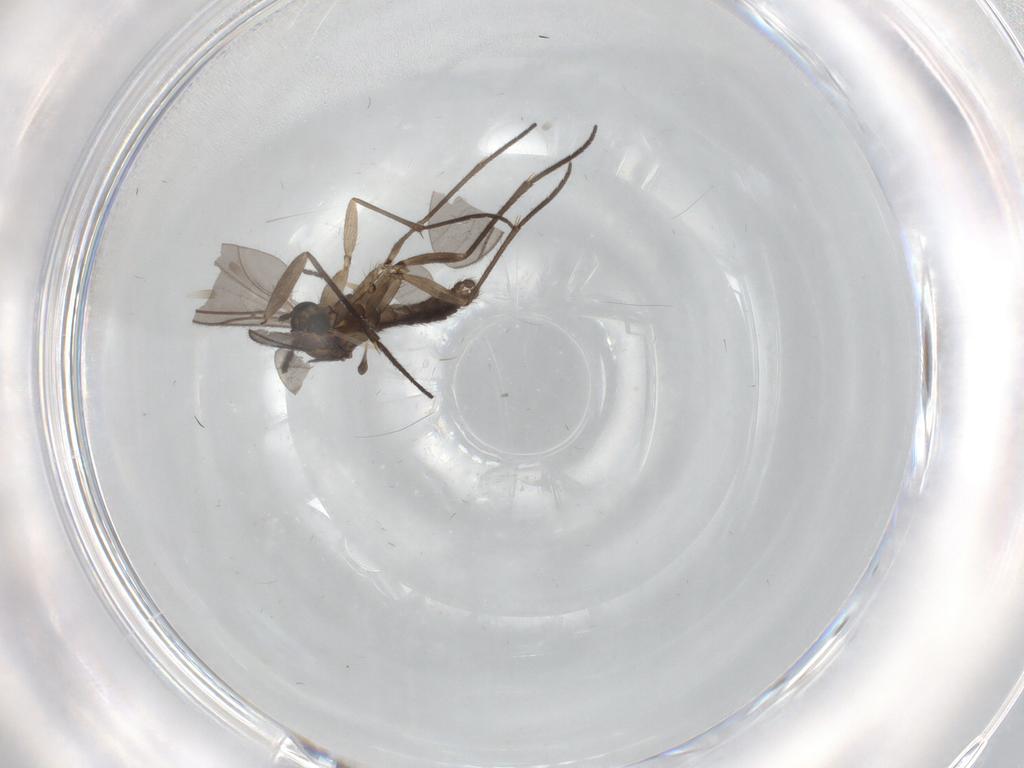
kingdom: Animalia
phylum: Arthropoda
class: Insecta
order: Diptera
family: Sciaridae
